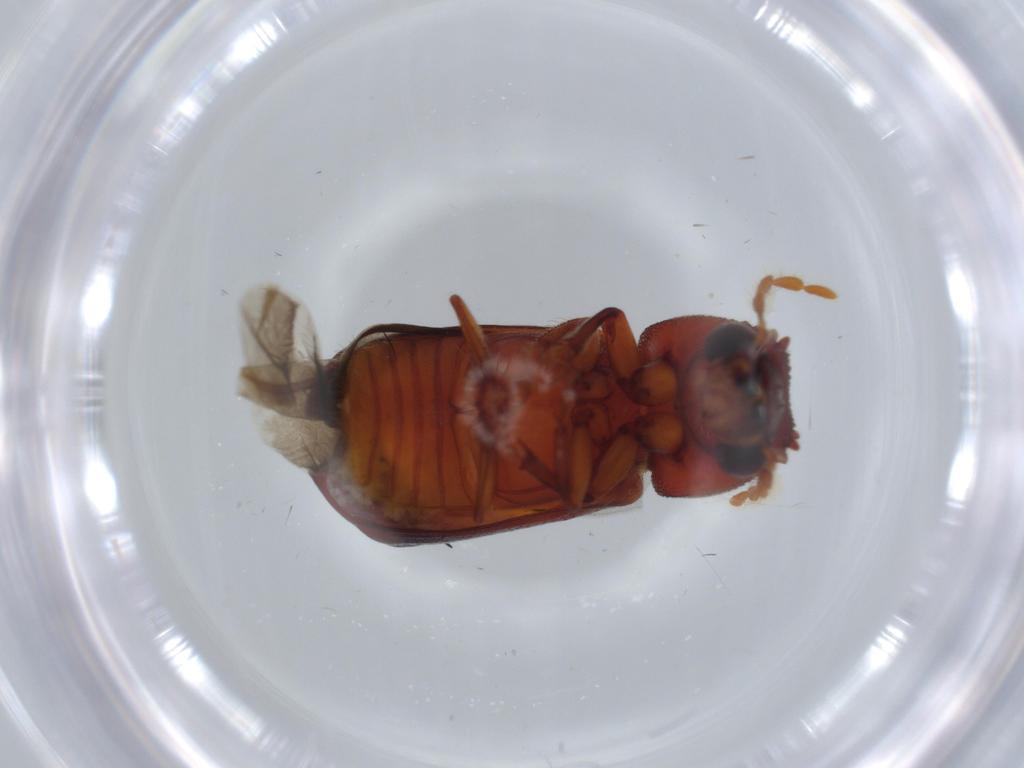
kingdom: Animalia
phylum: Arthropoda
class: Insecta
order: Coleoptera
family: Bostrichidae
